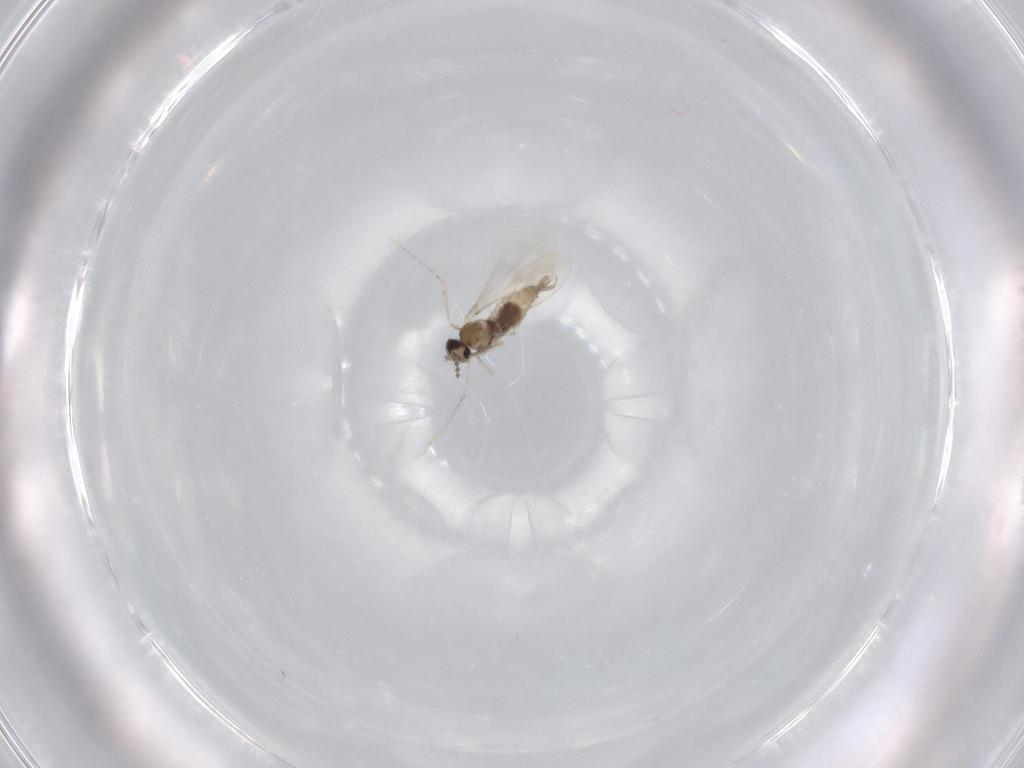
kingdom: Animalia
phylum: Arthropoda
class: Insecta
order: Diptera
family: Cecidomyiidae
